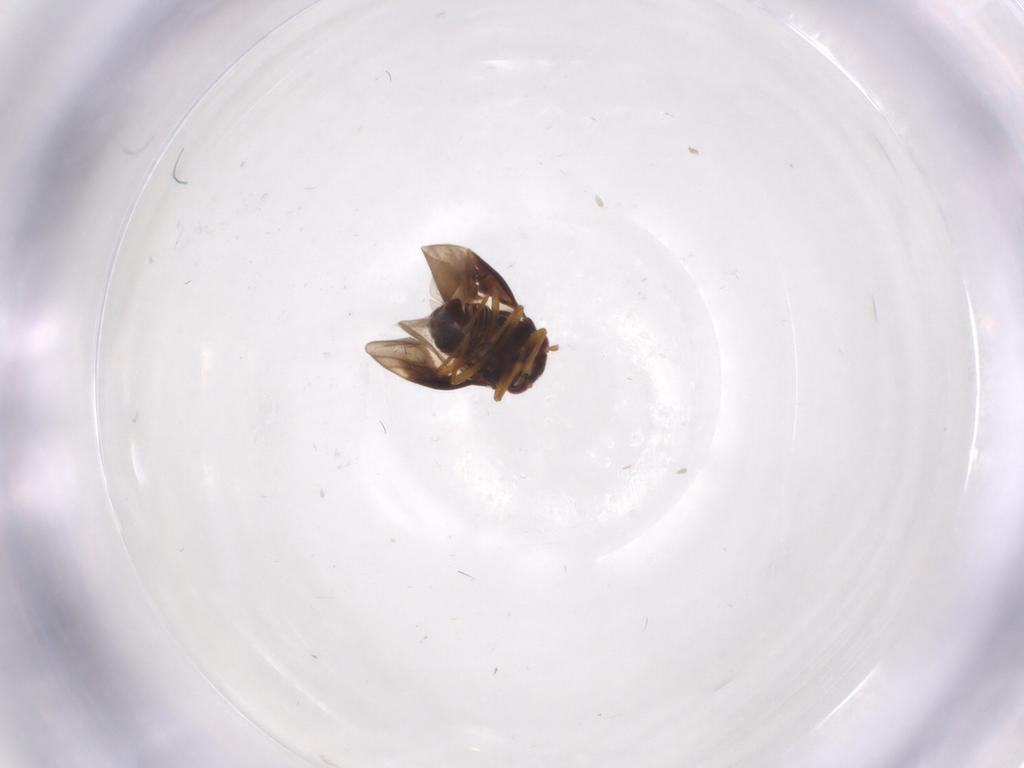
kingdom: Animalia
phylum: Arthropoda
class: Insecta
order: Hemiptera
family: Schizopteridae
